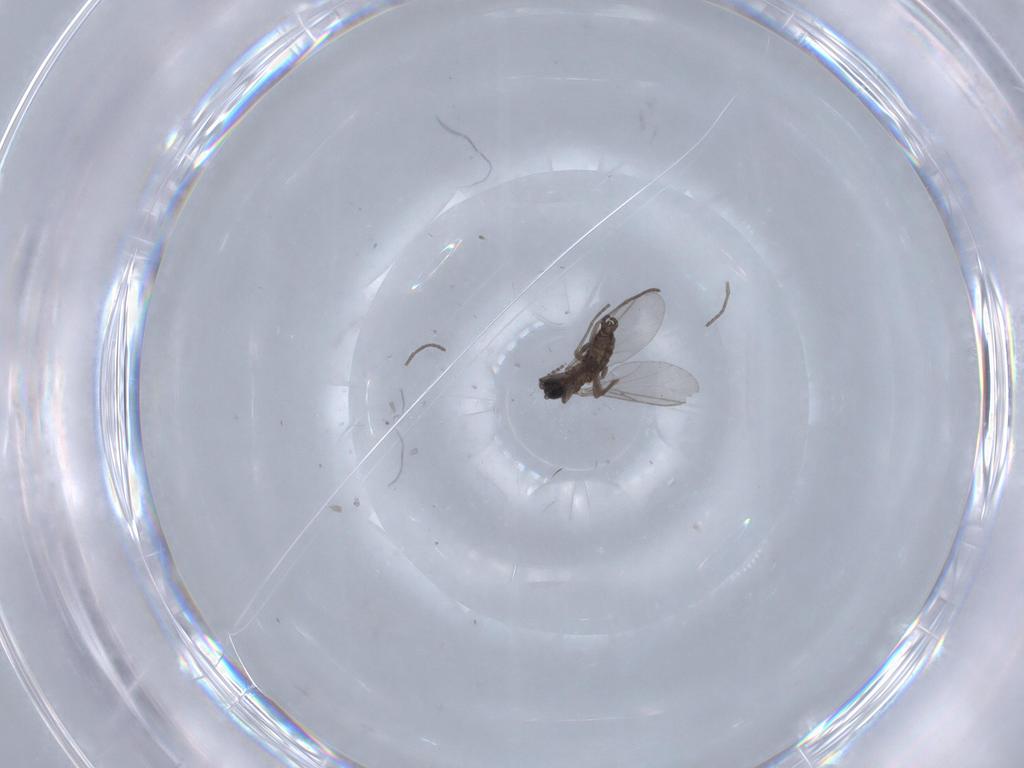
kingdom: Animalia
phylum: Arthropoda
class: Insecta
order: Diptera
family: Chironomidae
